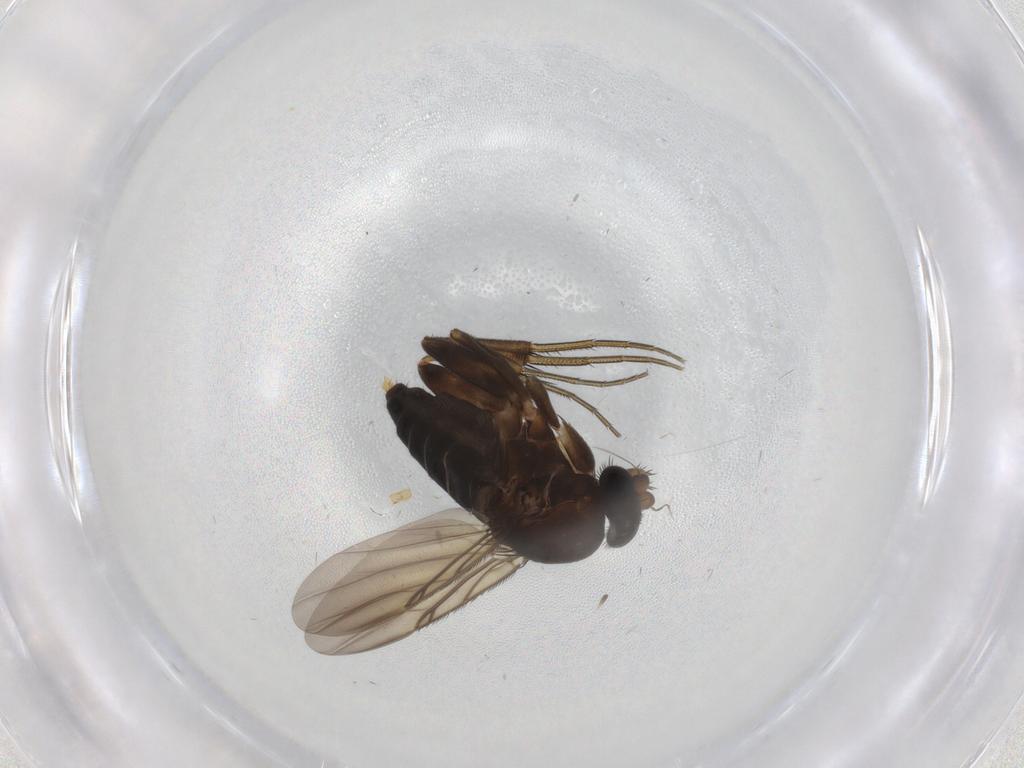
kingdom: Animalia
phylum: Arthropoda
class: Insecta
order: Diptera
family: Phoridae
